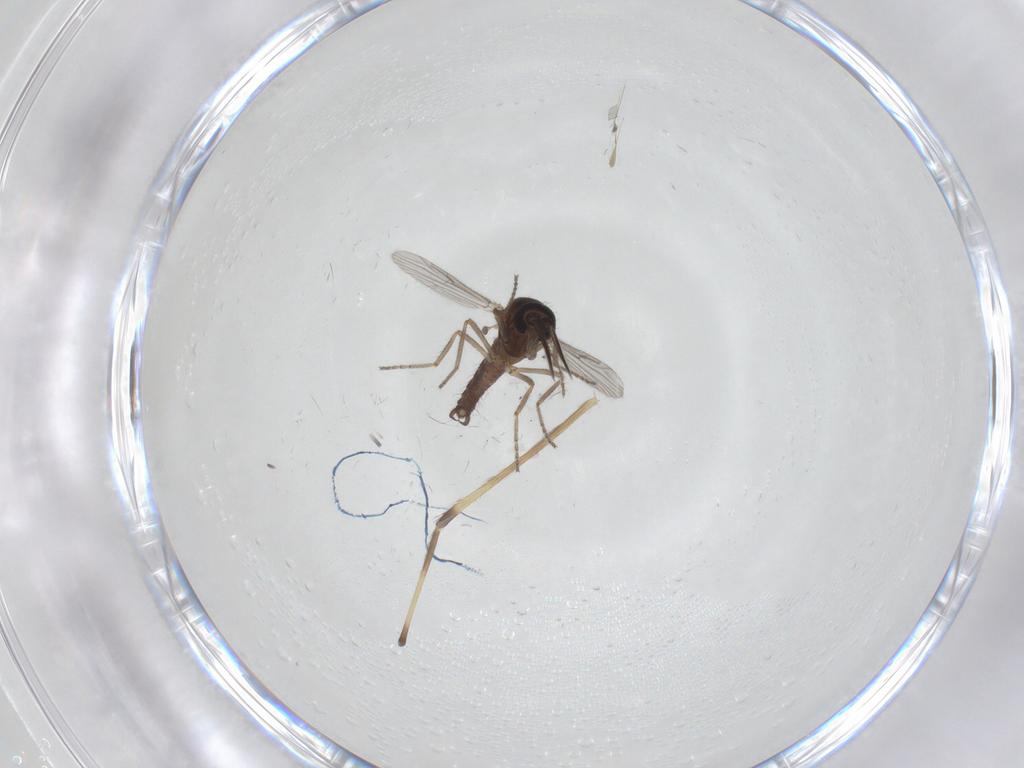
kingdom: Animalia
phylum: Arthropoda
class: Insecta
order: Diptera
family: Ceratopogonidae
